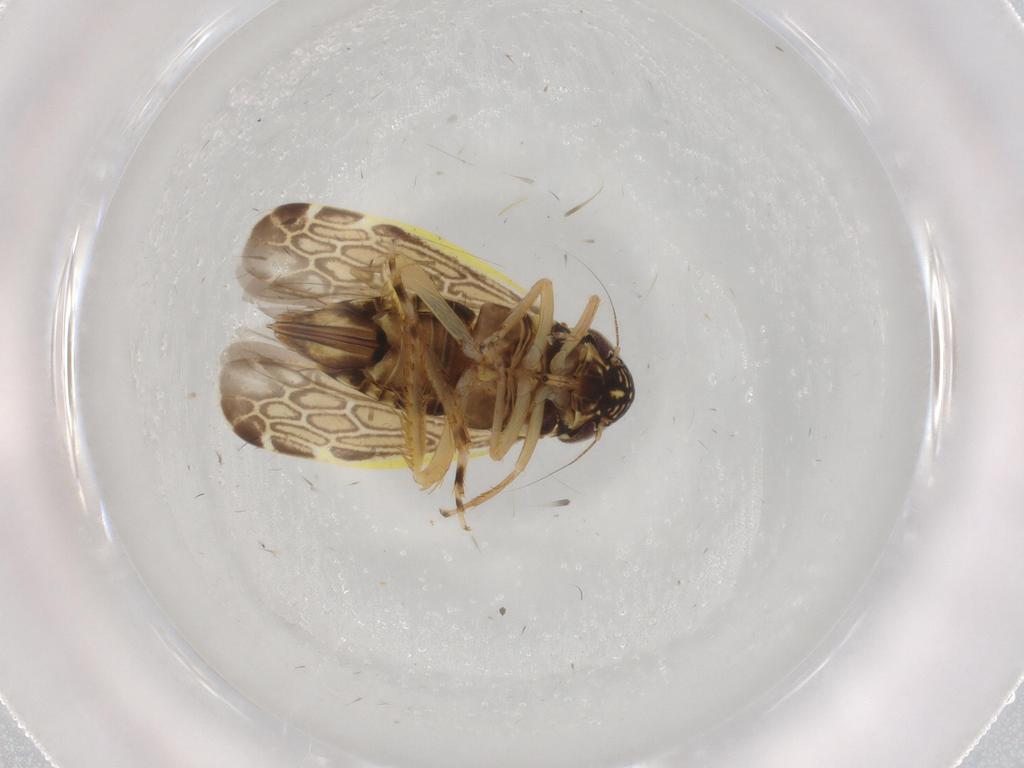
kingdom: Animalia
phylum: Arthropoda
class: Insecta
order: Hemiptera
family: Cicadellidae
